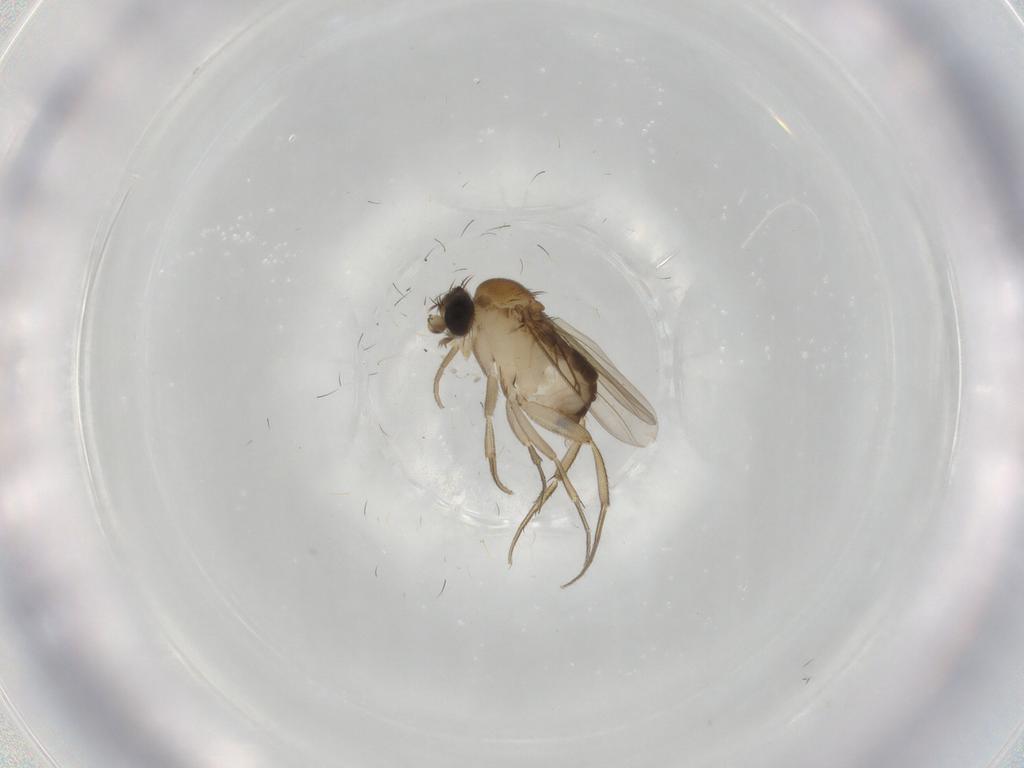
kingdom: Animalia
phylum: Arthropoda
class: Insecta
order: Diptera
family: Phoridae
